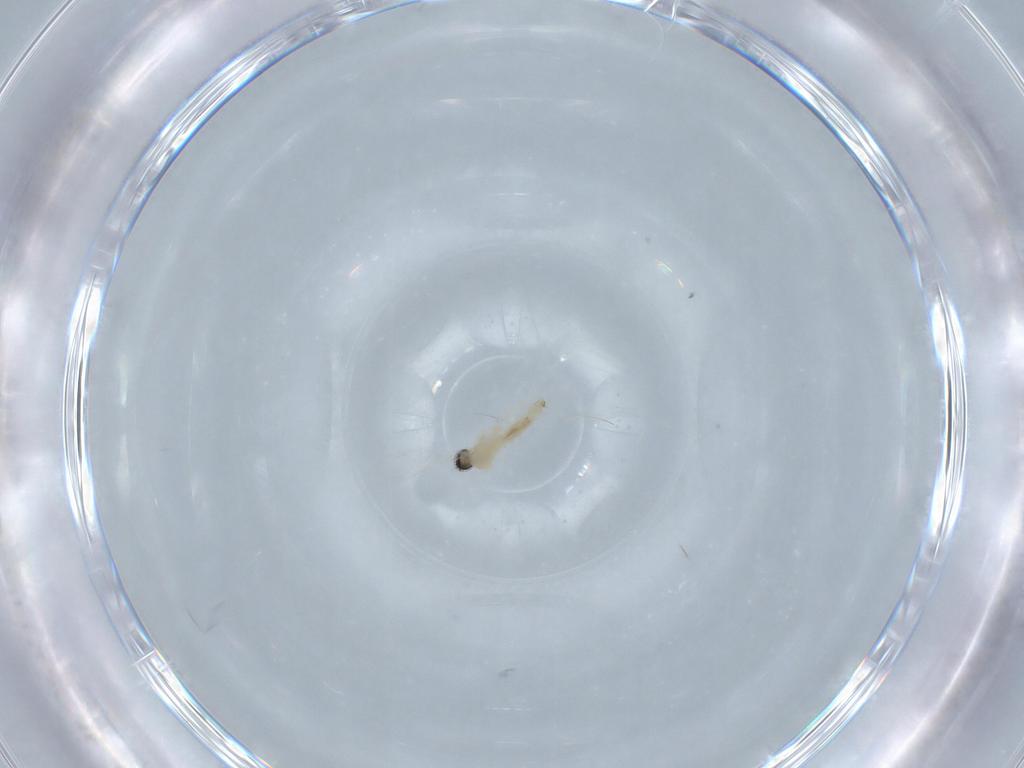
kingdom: Animalia
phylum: Arthropoda
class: Insecta
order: Diptera
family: Cecidomyiidae
